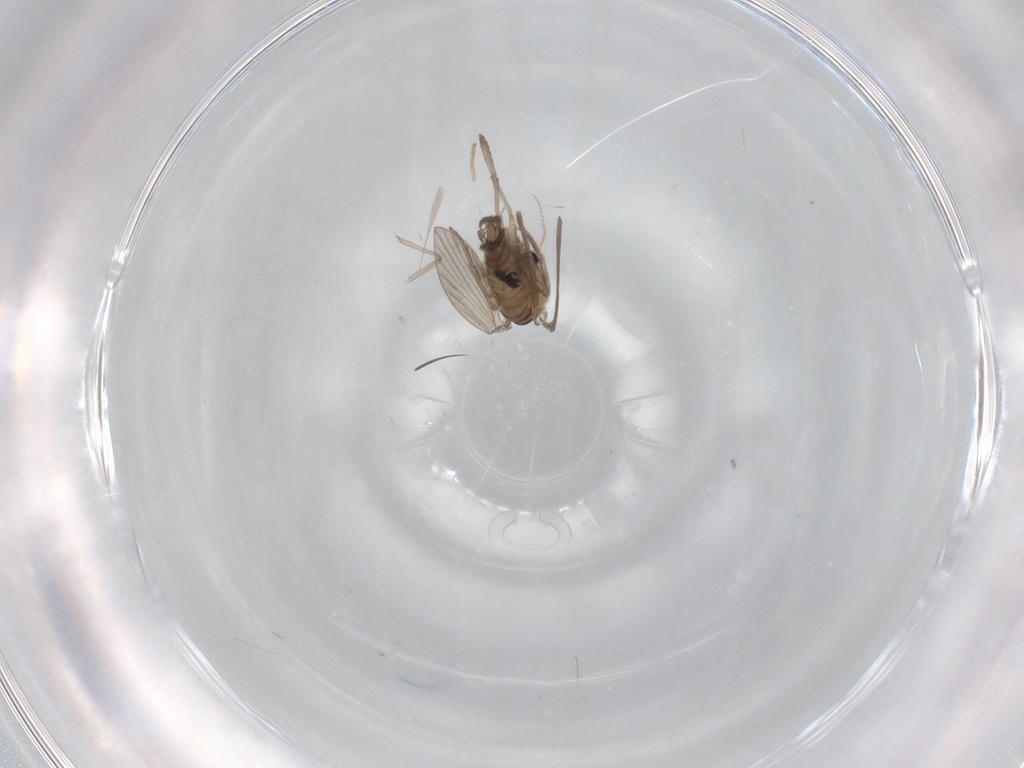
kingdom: Animalia
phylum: Arthropoda
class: Insecta
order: Diptera
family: Psychodidae
